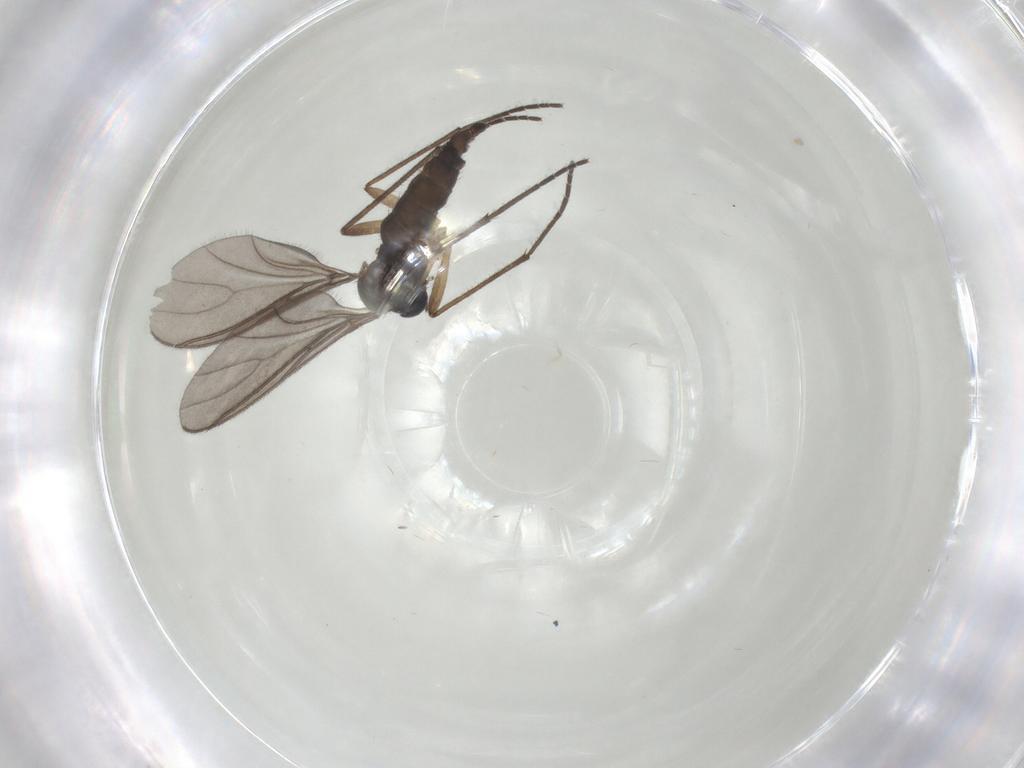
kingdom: Animalia
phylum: Arthropoda
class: Insecta
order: Diptera
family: Sciaridae
